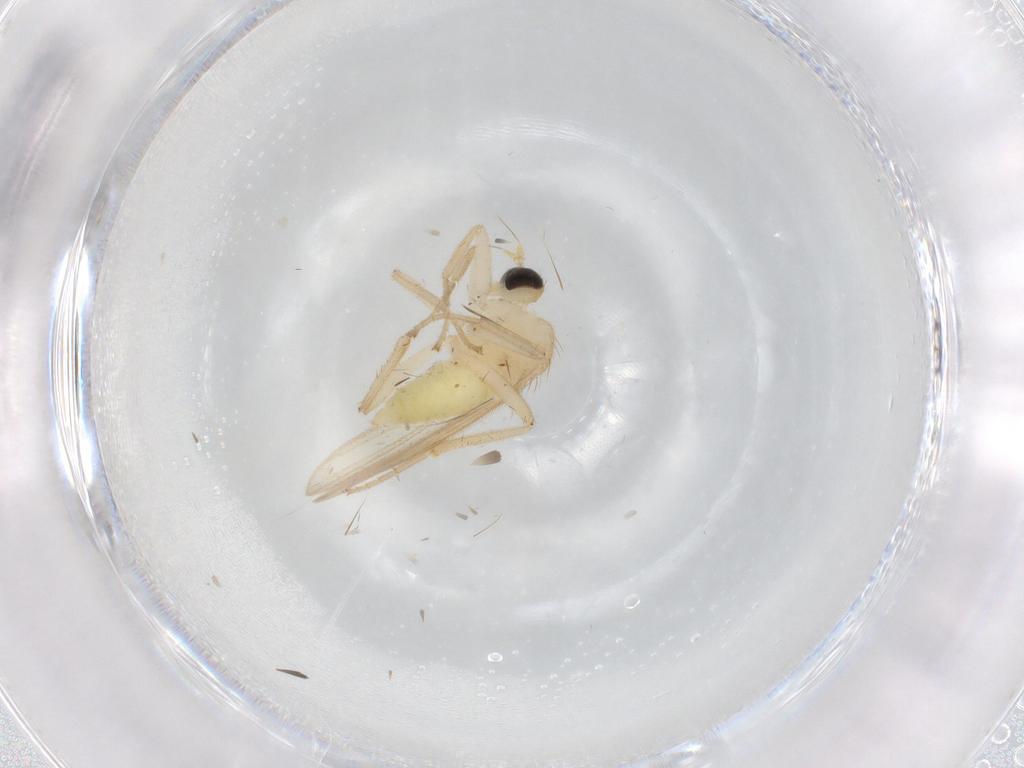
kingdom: Animalia
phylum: Arthropoda
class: Insecta
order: Diptera
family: Hybotidae
